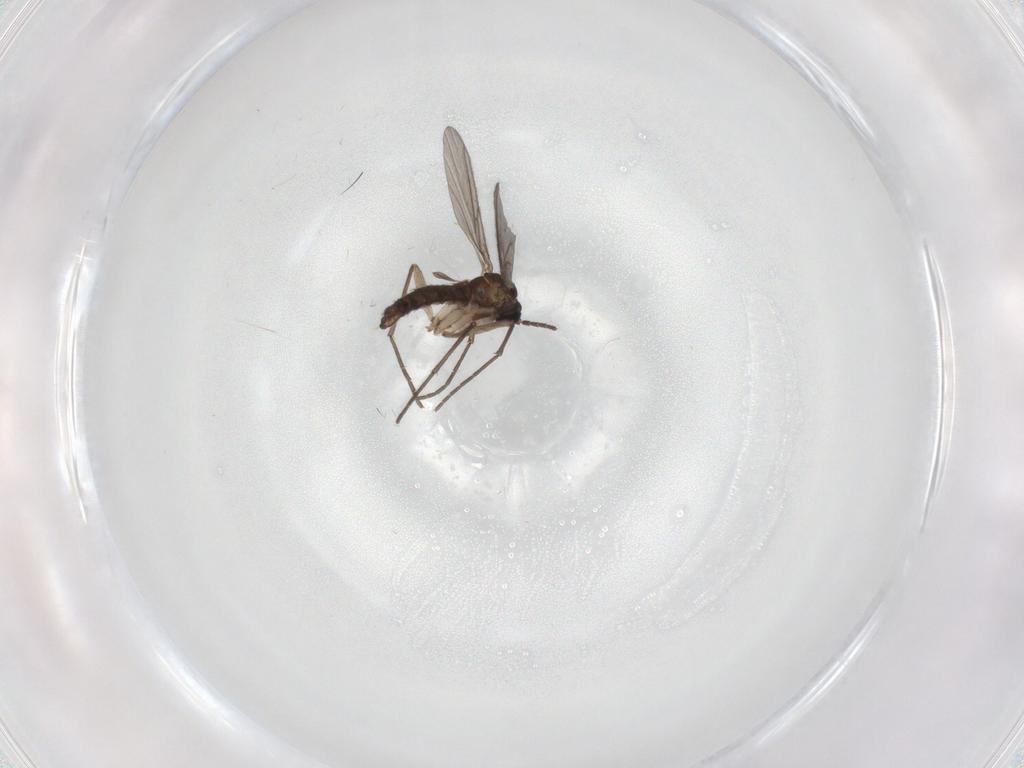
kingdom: Animalia
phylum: Arthropoda
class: Insecta
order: Diptera
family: Sciaridae
